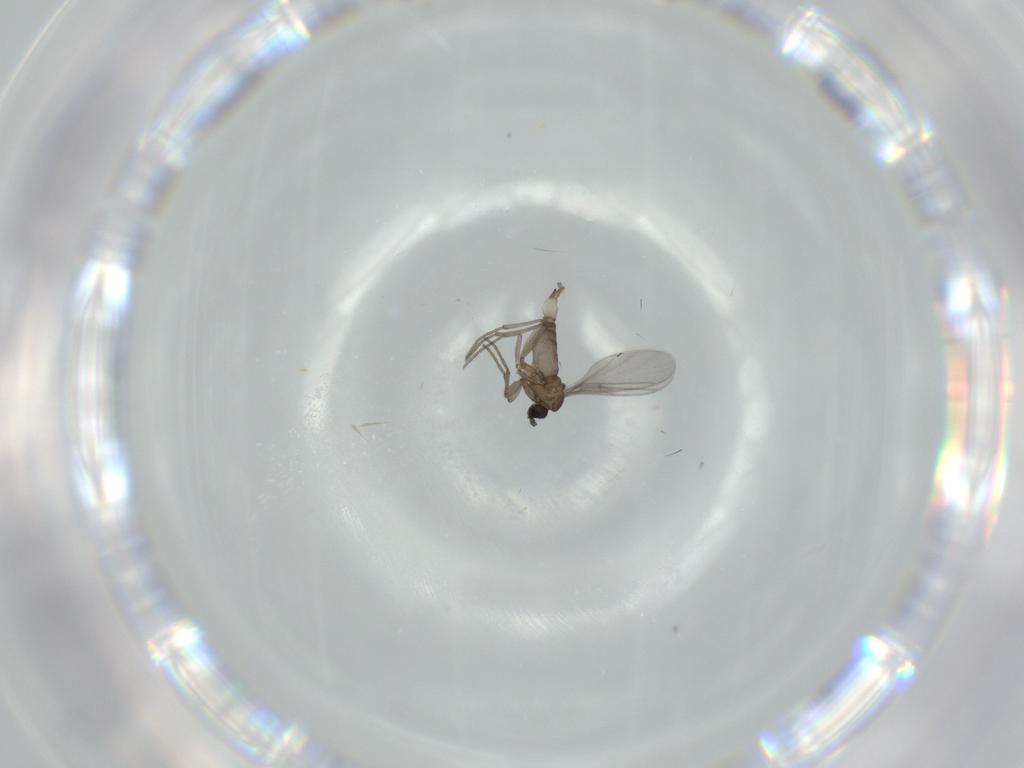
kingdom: Animalia
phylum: Arthropoda
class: Insecta
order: Diptera
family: Sciaridae
